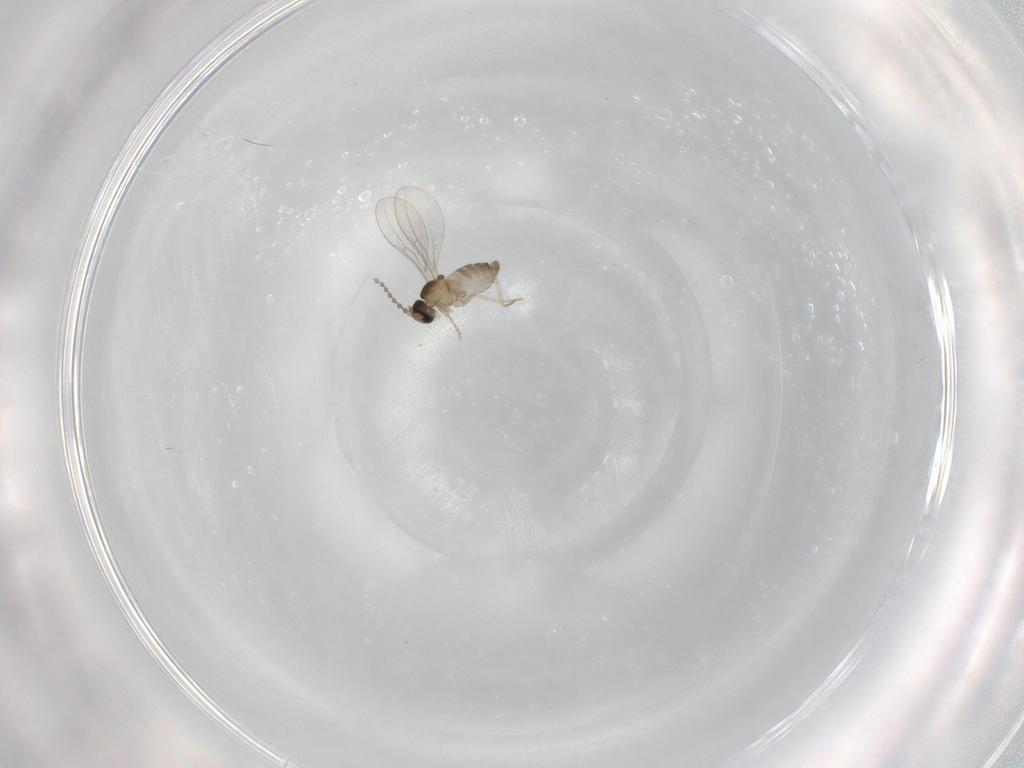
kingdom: Animalia
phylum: Arthropoda
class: Insecta
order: Diptera
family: Cecidomyiidae
